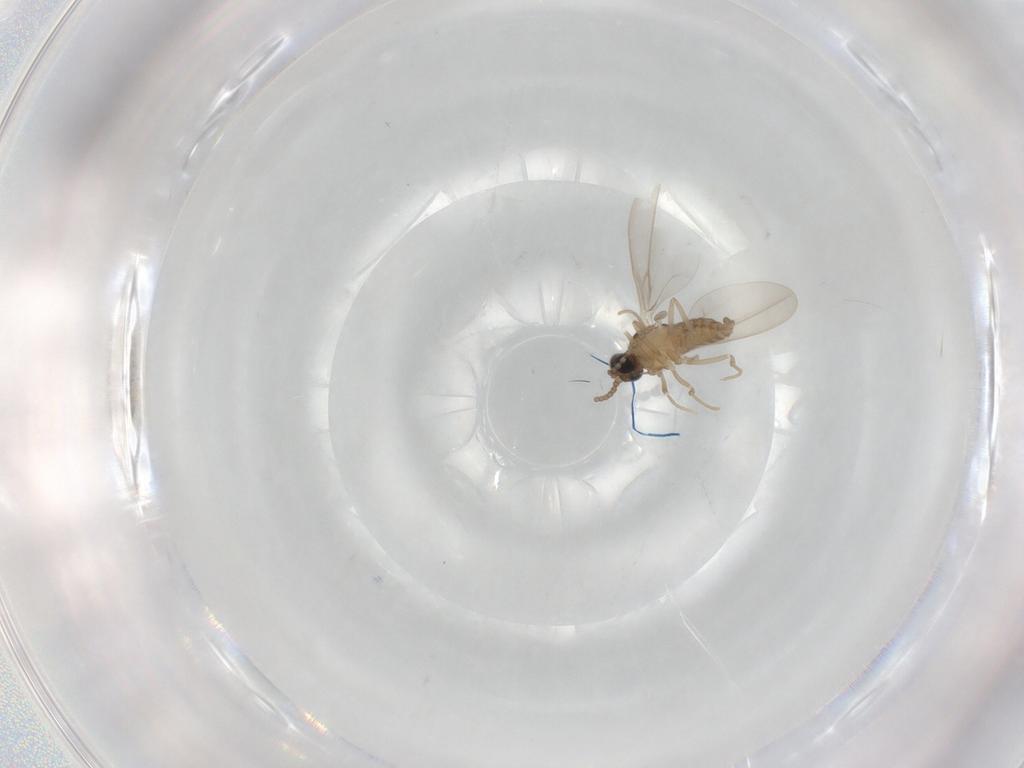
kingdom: Animalia
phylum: Arthropoda
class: Insecta
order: Diptera
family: Cecidomyiidae
